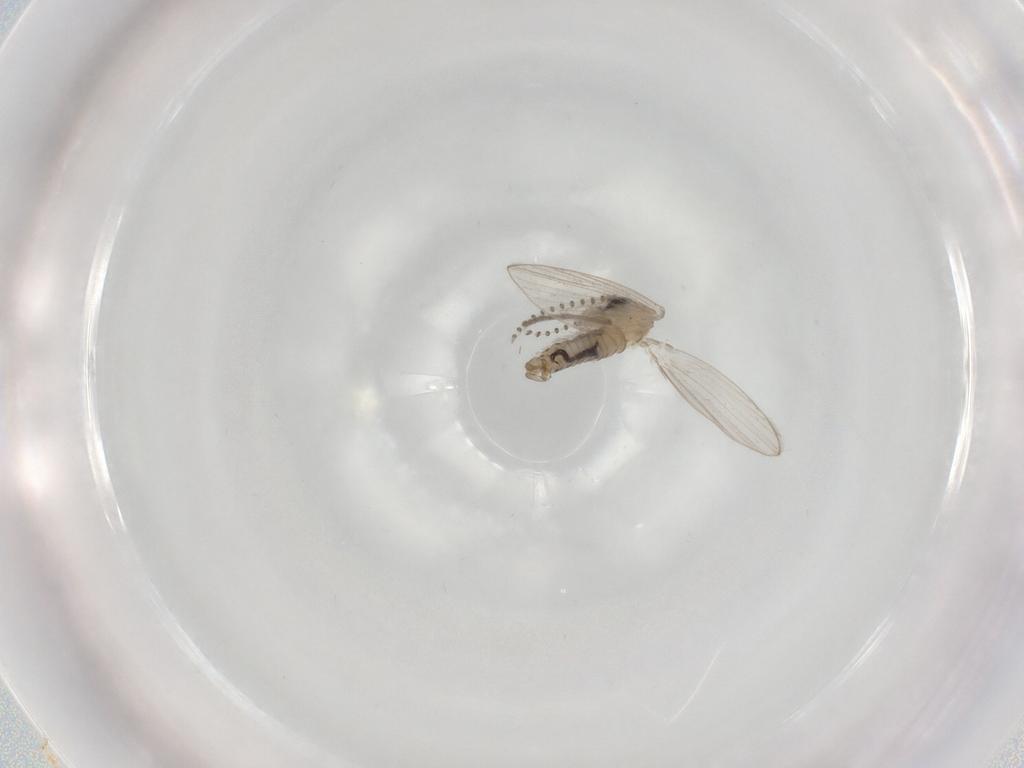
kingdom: Animalia
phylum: Arthropoda
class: Insecta
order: Diptera
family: Psychodidae
